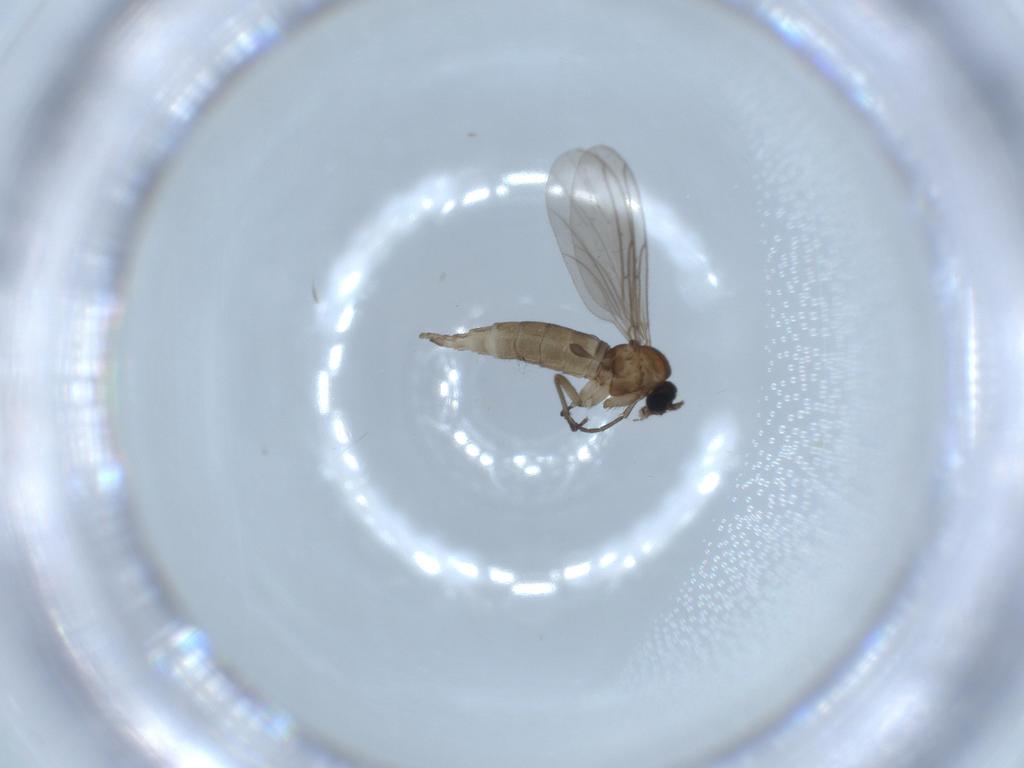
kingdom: Animalia
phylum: Arthropoda
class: Insecta
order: Diptera
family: Sciaridae
